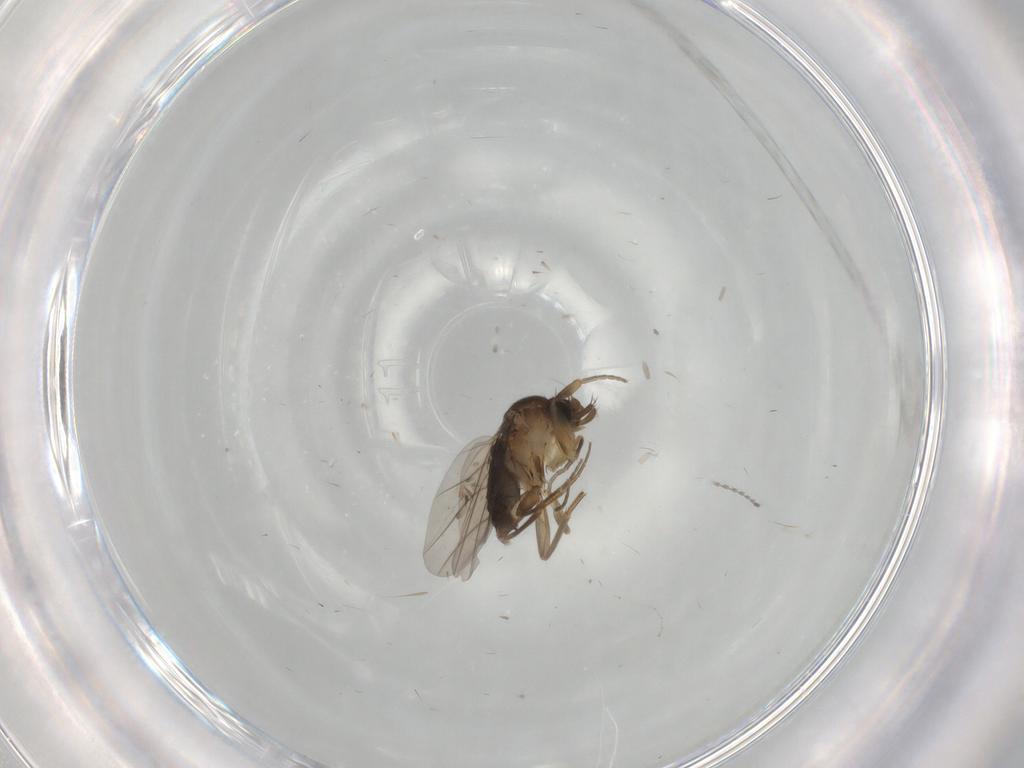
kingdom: Animalia
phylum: Arthropoda
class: Insecta
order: Diptera
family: Phoridae
